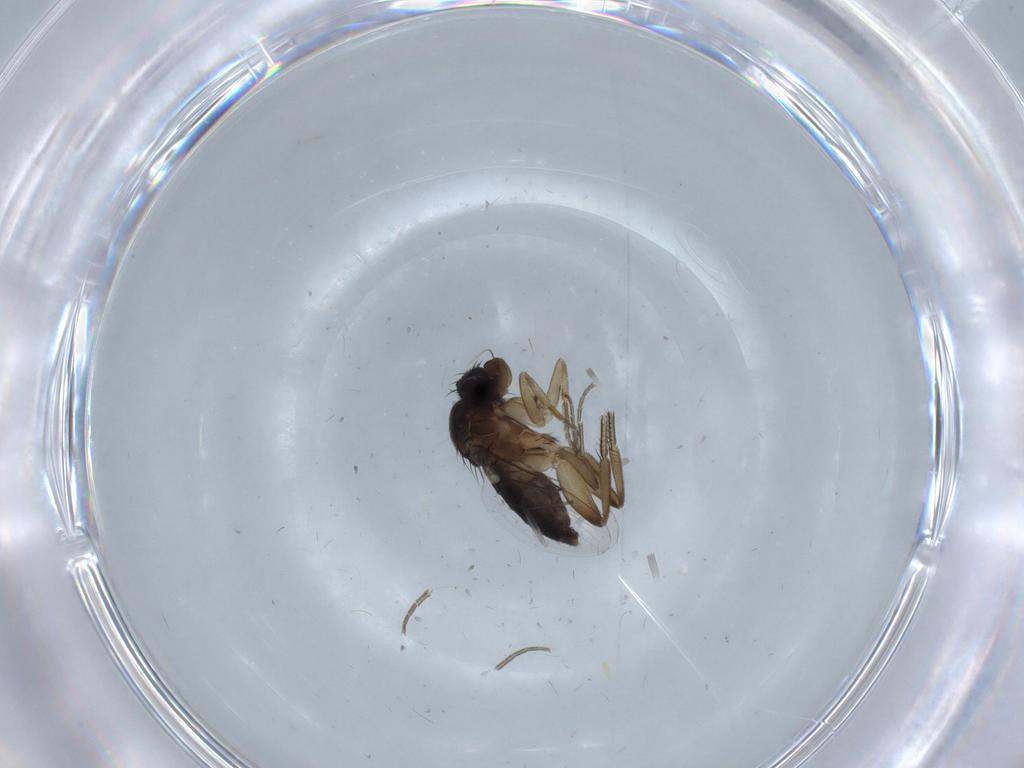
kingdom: Animalia
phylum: Arthropoda
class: Insecta
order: Diptera
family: Phoridae
